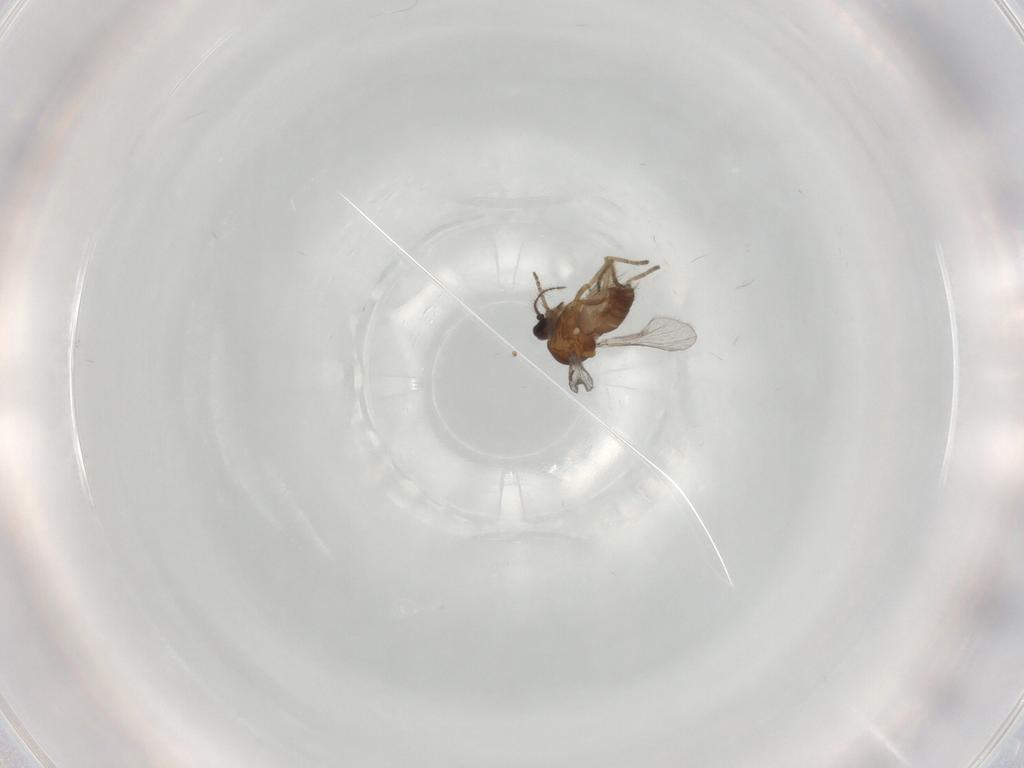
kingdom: Animalia
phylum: Arthropoda
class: Insecta
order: Diptera
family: Ceratopogonidae
